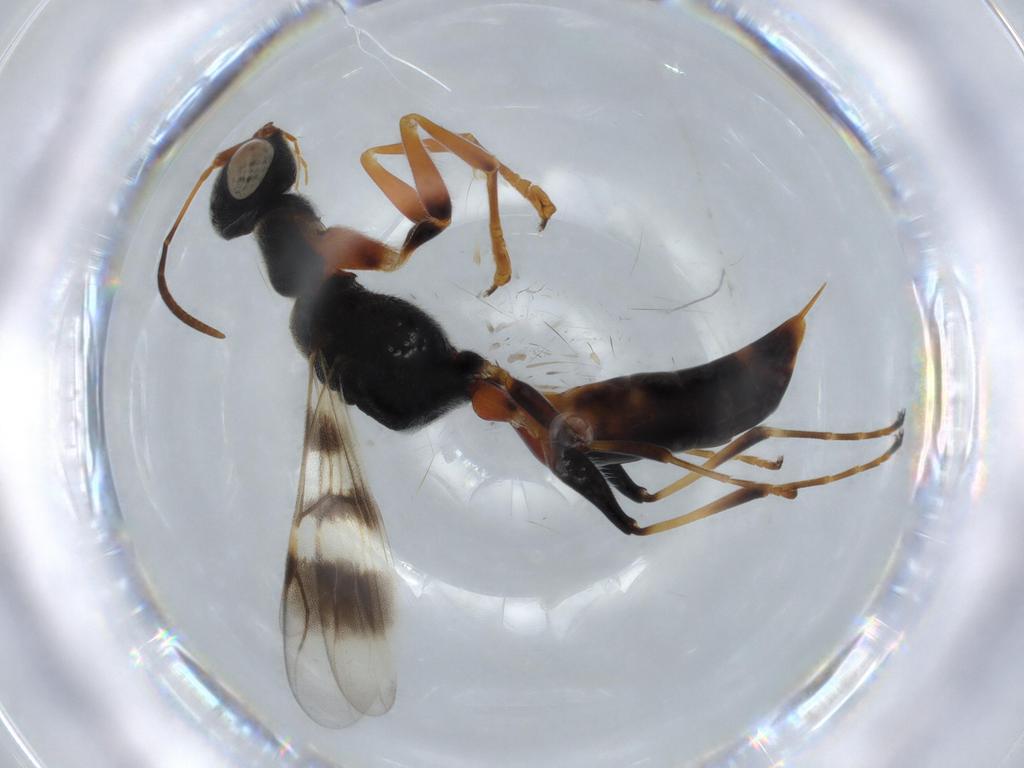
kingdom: Animalia
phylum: Arthropoda
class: Insecta
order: Hymenoptera
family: Dryinidae
